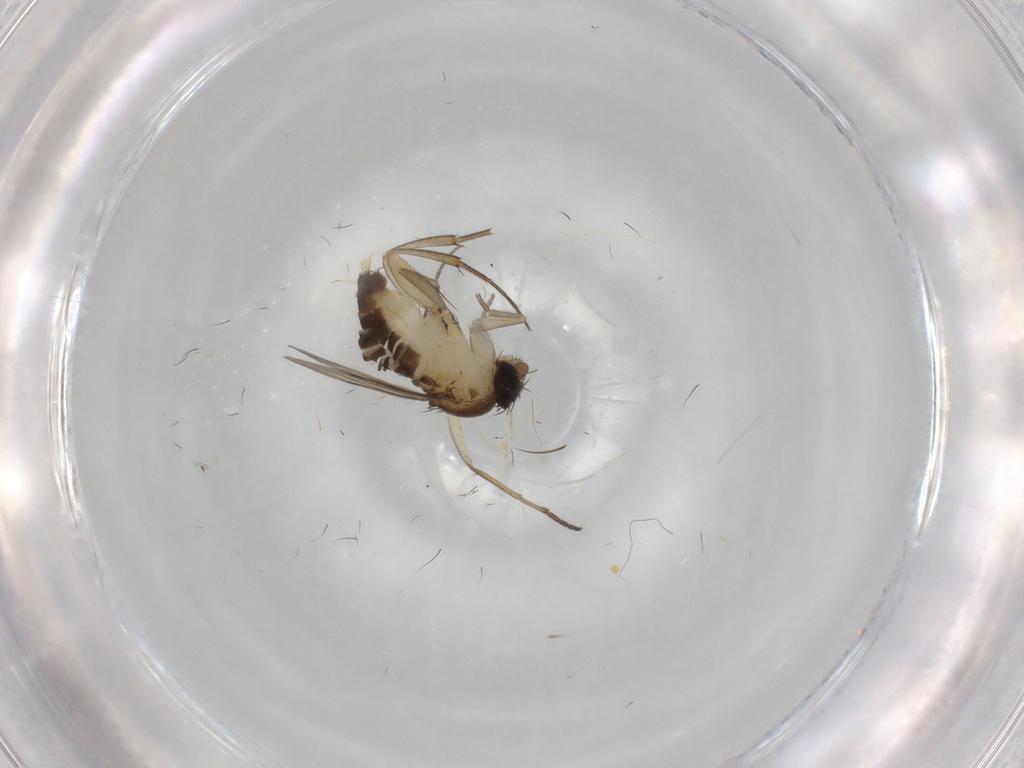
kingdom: Animalia
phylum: Arthropoda
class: Insecta
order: Diptera
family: Dolichopodidae
